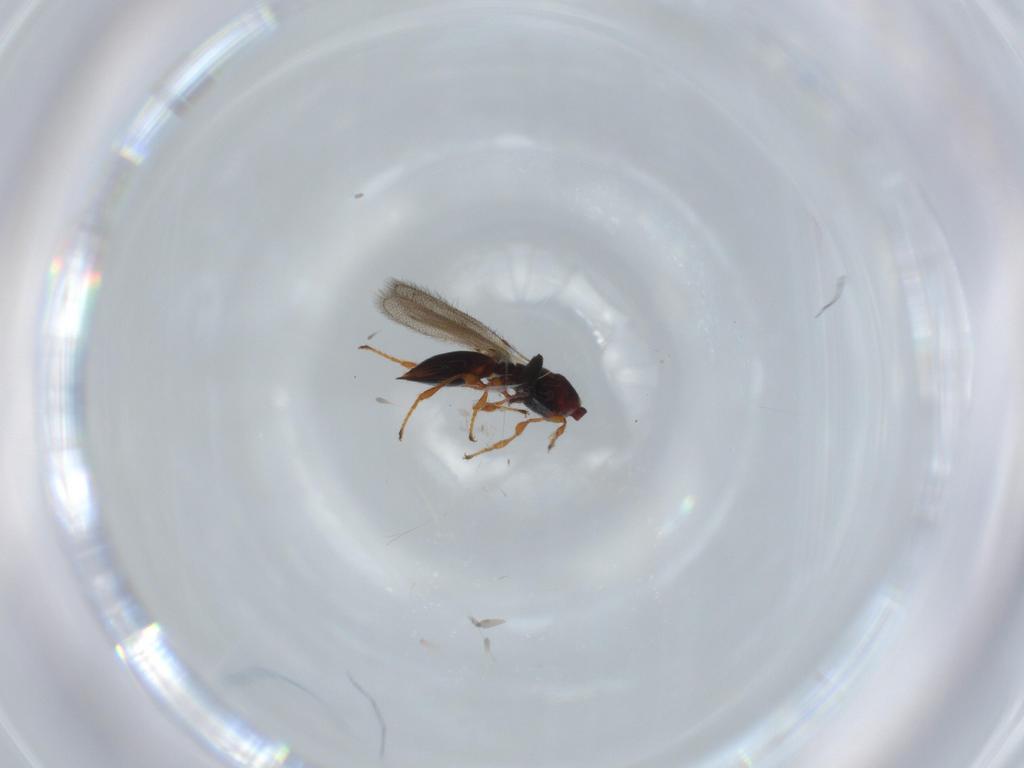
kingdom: Animalia
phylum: Arthropoda
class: Insecta
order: Hymenoptera
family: Diapriidae
